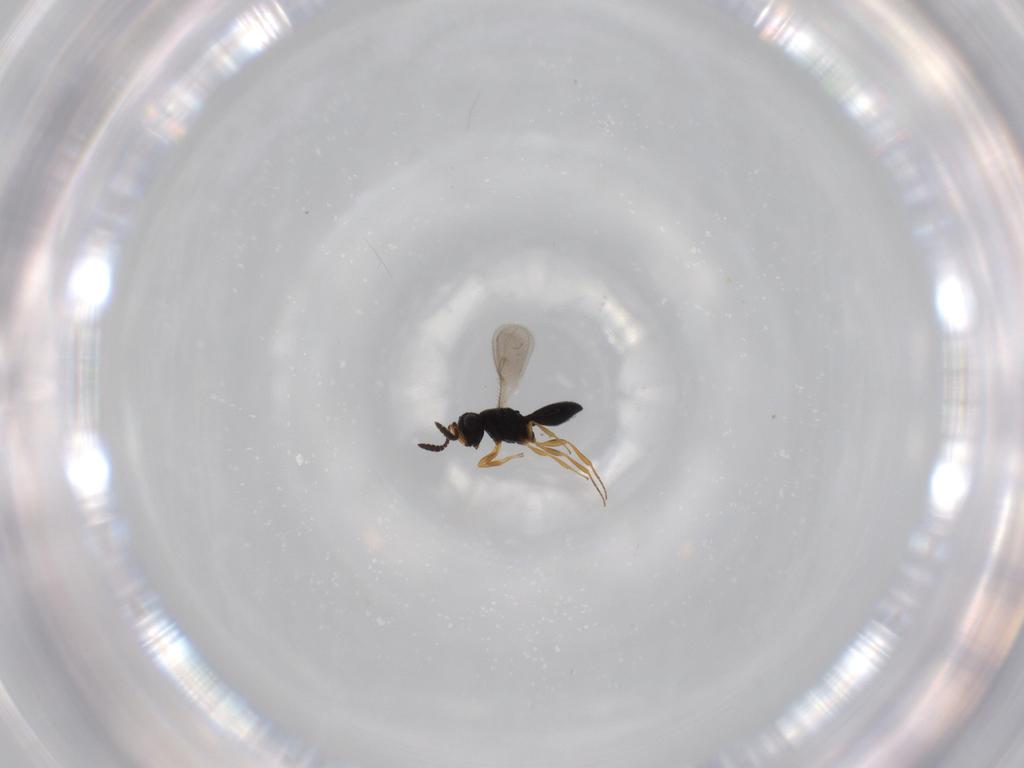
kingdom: Animalia
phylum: Arthropoda
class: Insecta
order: Hymenoptera
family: Scelionidae
